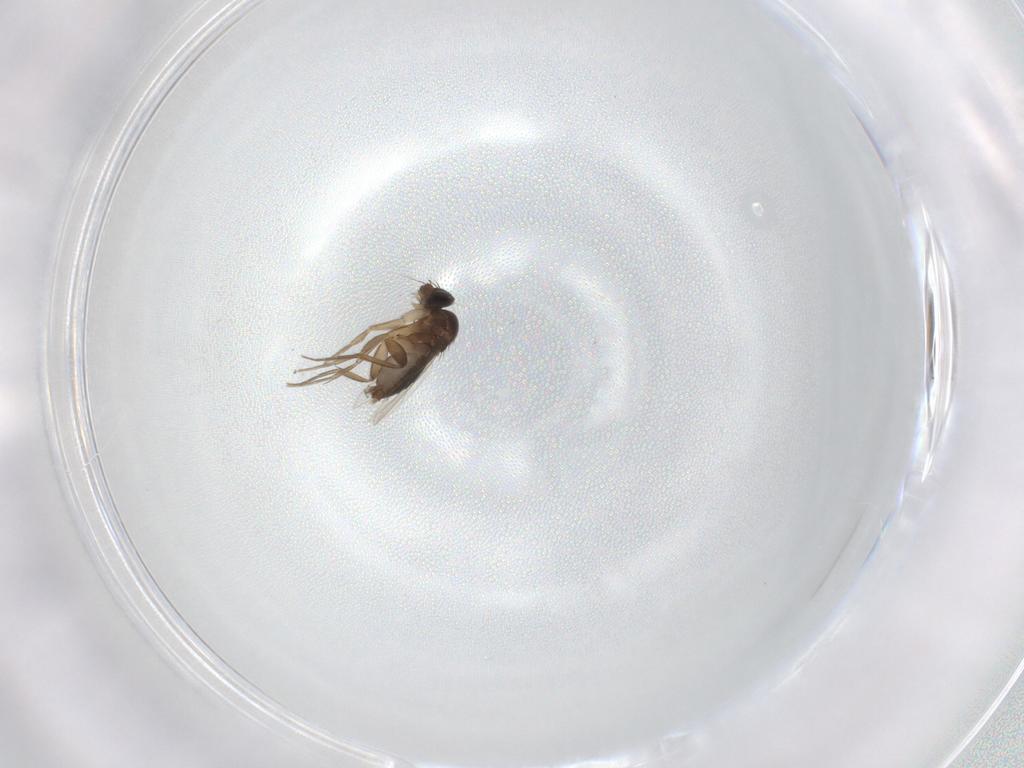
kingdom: Animalia
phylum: Arthropoda
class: Insecta
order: Diptera
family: Phoridae
